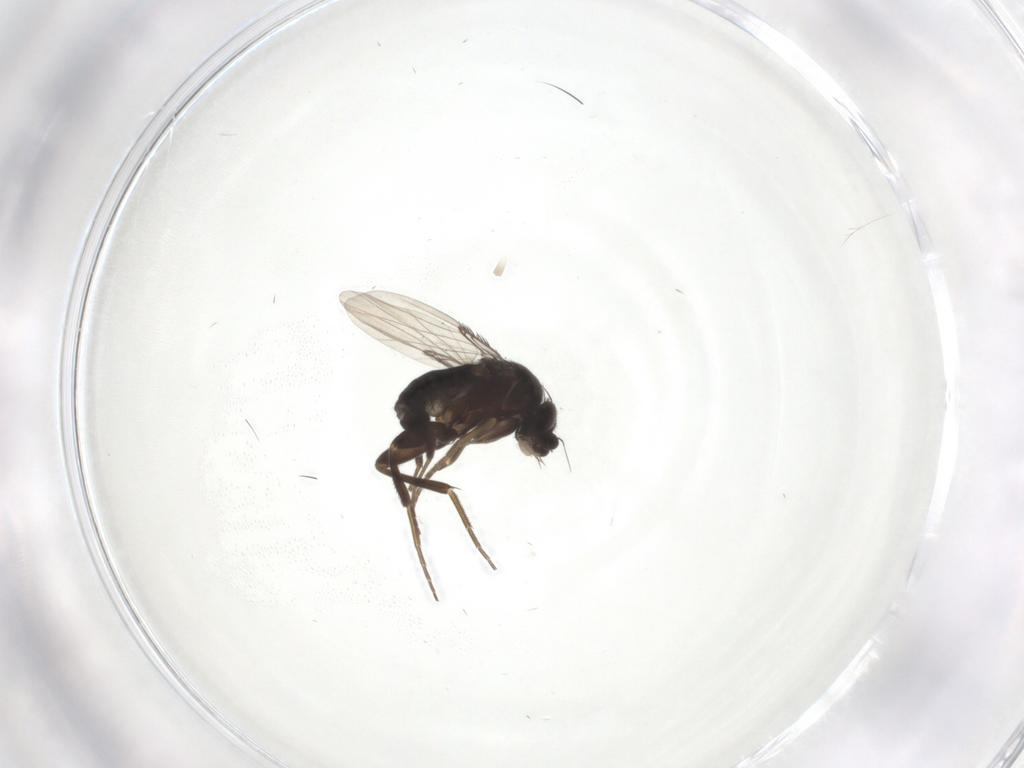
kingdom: Animalia
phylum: Arthropoda
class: Insecta
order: Diptera
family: Phoridae
